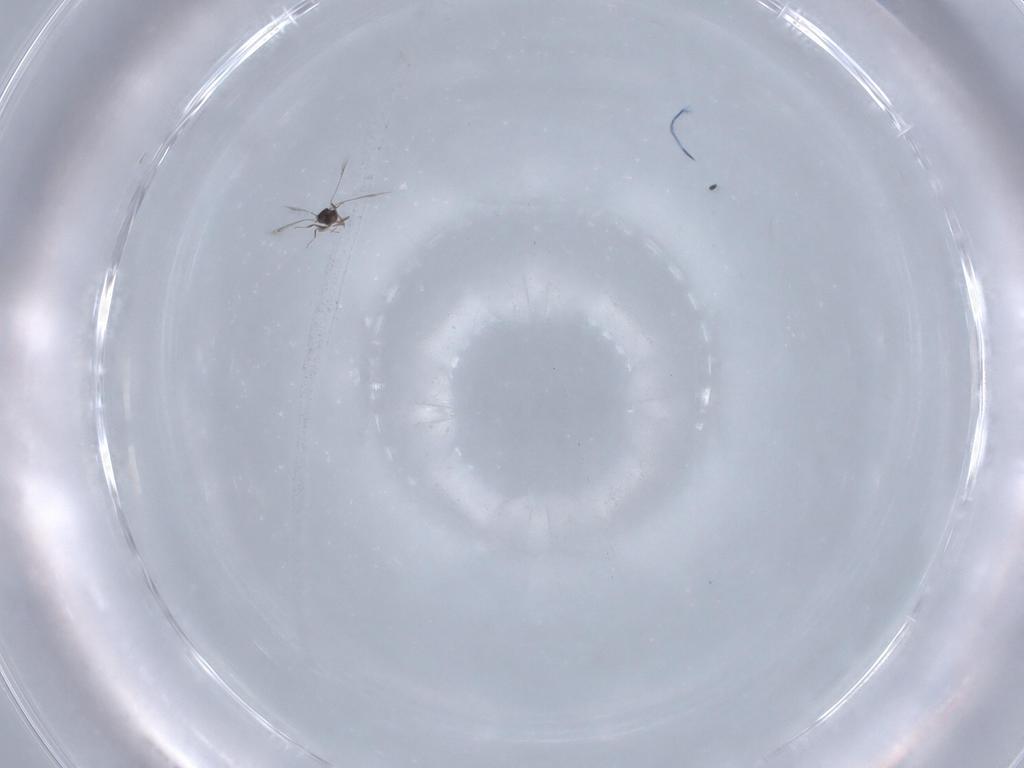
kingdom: Animalia
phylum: Arthropoda
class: Insecta
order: Hymenoptera
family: Mymaridae
